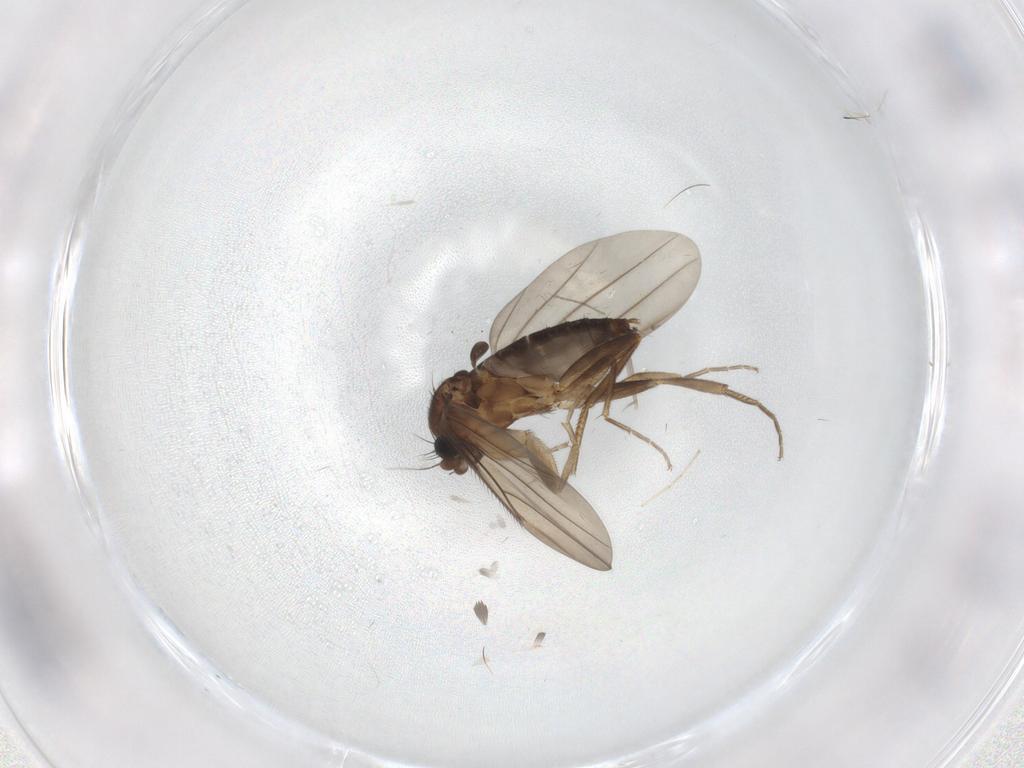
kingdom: Animalia
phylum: Arthropoda
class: Insecta
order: Diptera
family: Phoridae
